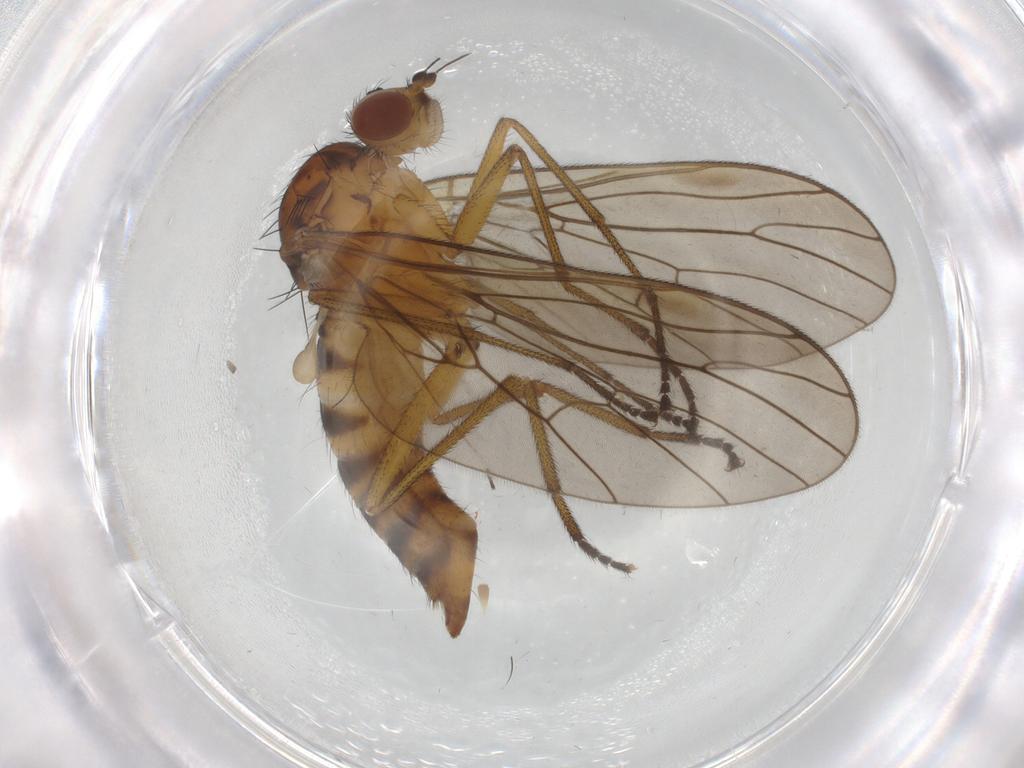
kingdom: Animalia
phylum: Arthropoda
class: Insecta
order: Diptera
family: Brachystomatidae
